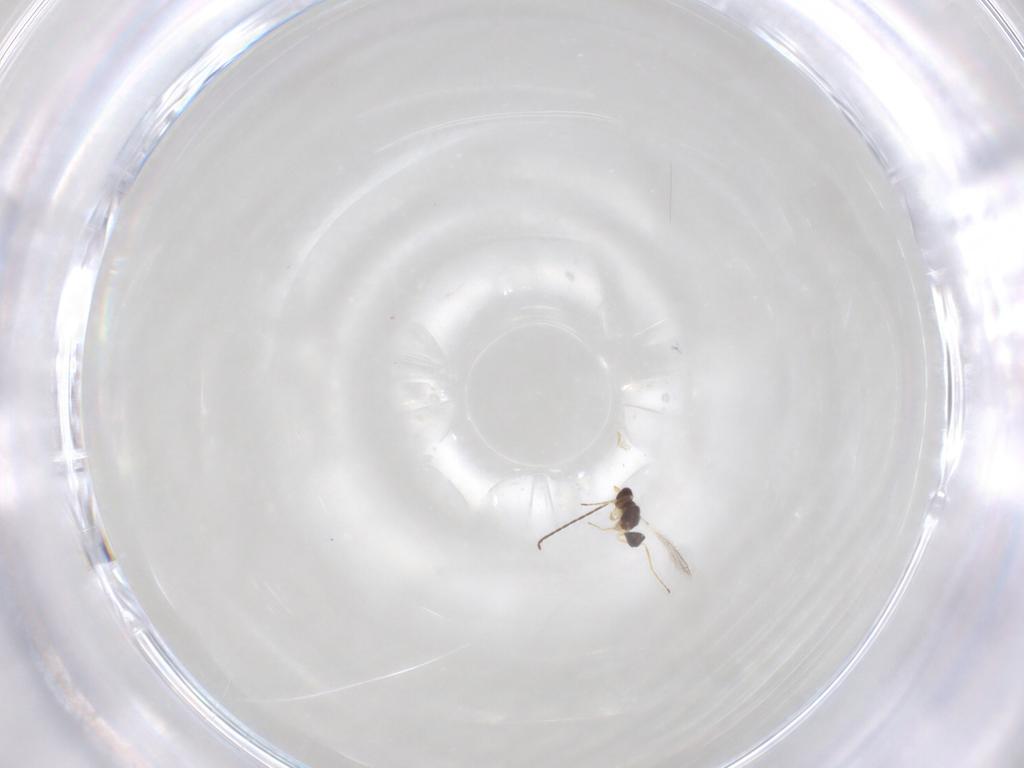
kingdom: Animalia
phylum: Arthropoda
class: Insecta
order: Hymenoptera
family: Mymaridae
